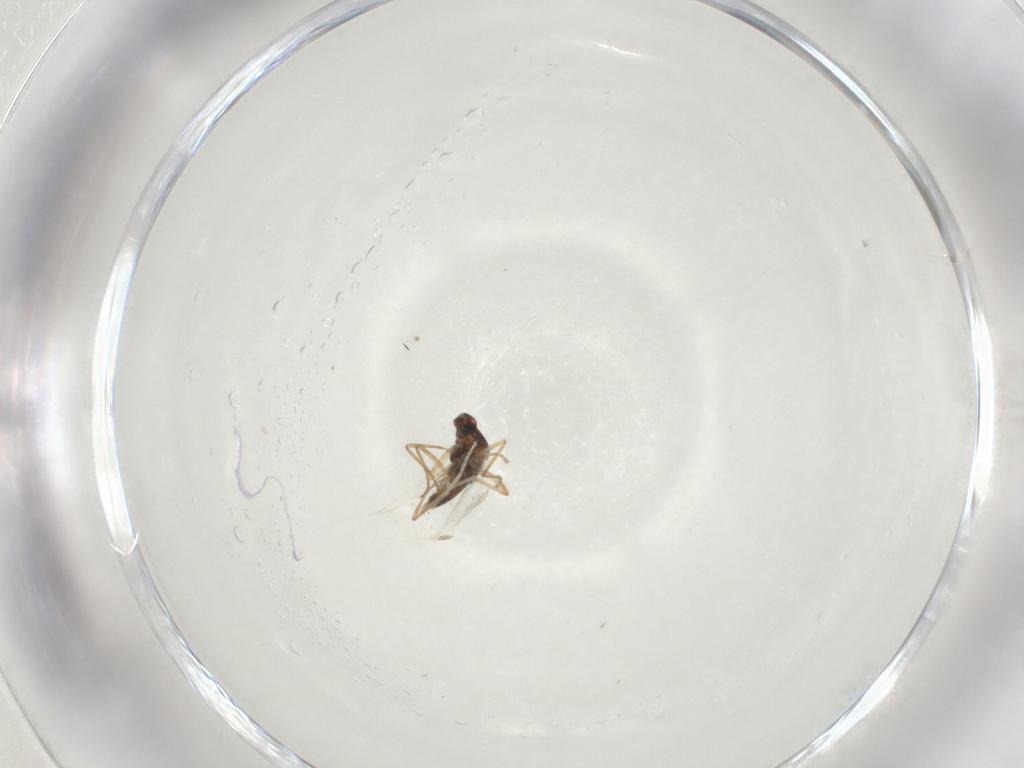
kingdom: Animalia
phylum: Arthropoda
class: Insecta
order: Diptera
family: Cecidomyiidae
